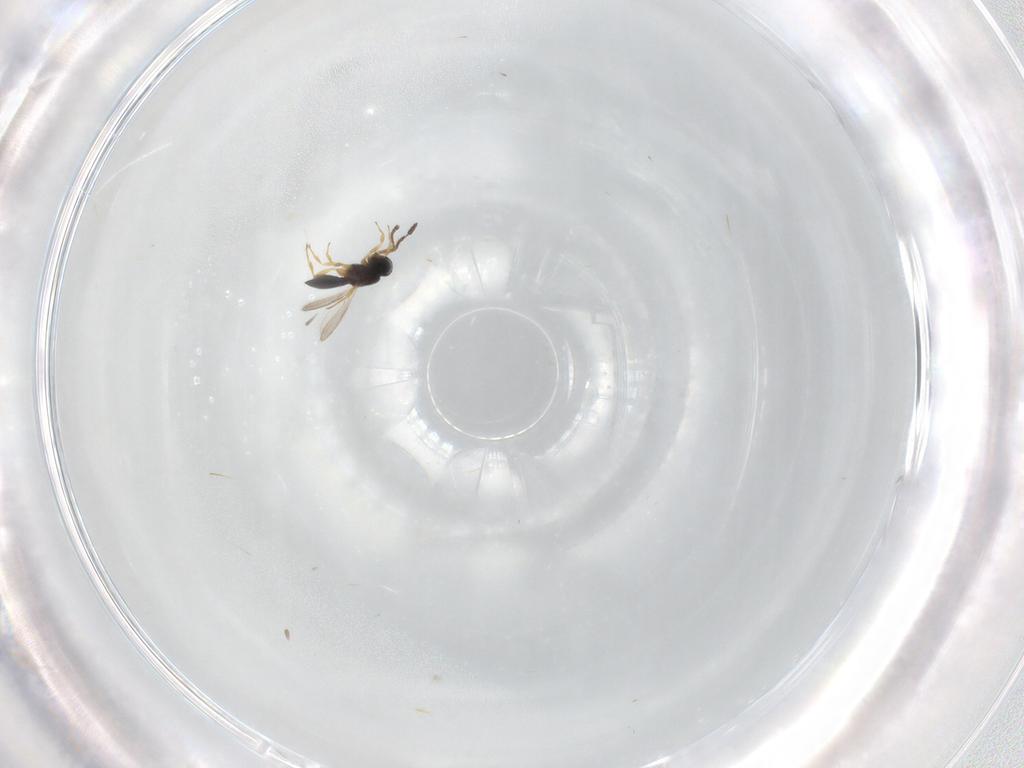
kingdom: Animalia
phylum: Arthropoda
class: Insecta
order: Hymenoptera
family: Scelionidae
